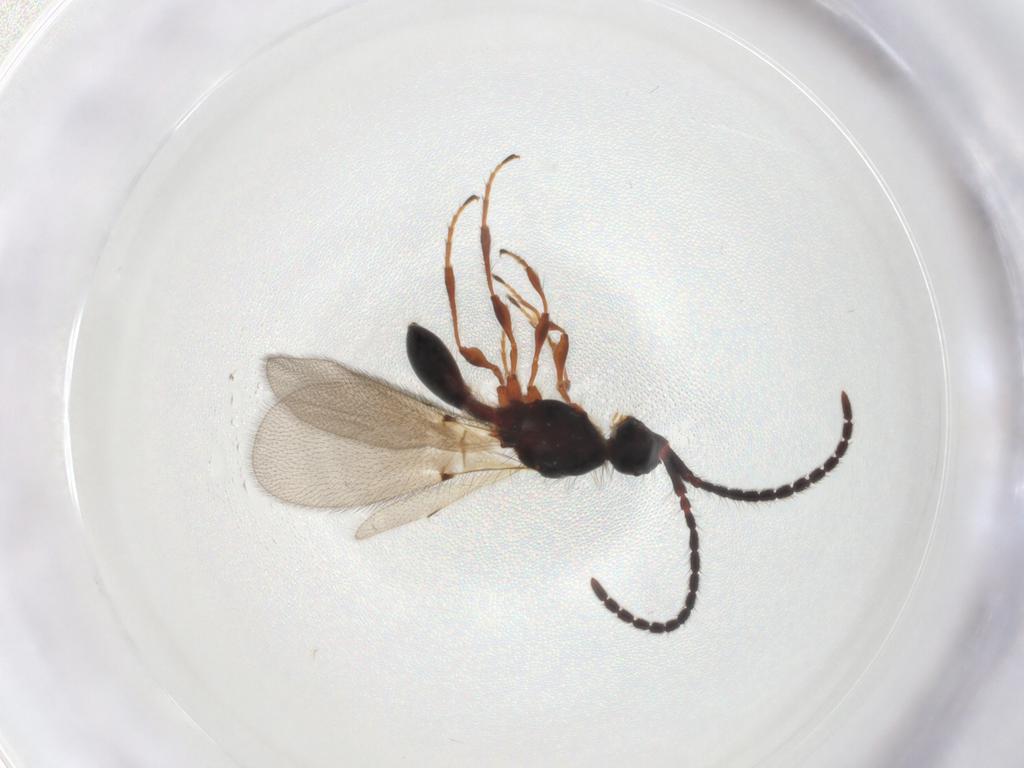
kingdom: Animalia
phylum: Arthropoda
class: Insecta
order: Hymenoptera
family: Diapriidae
